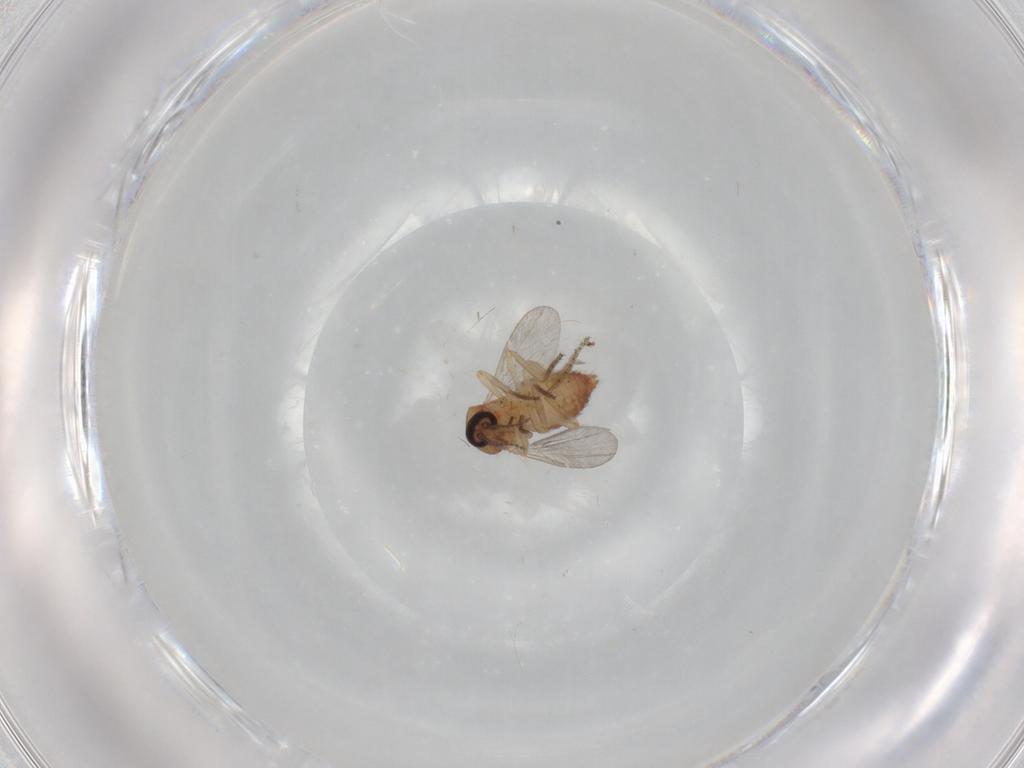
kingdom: Animalia
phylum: Arthropoda
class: Insecta
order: Diptera
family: Ceratopogonidae
